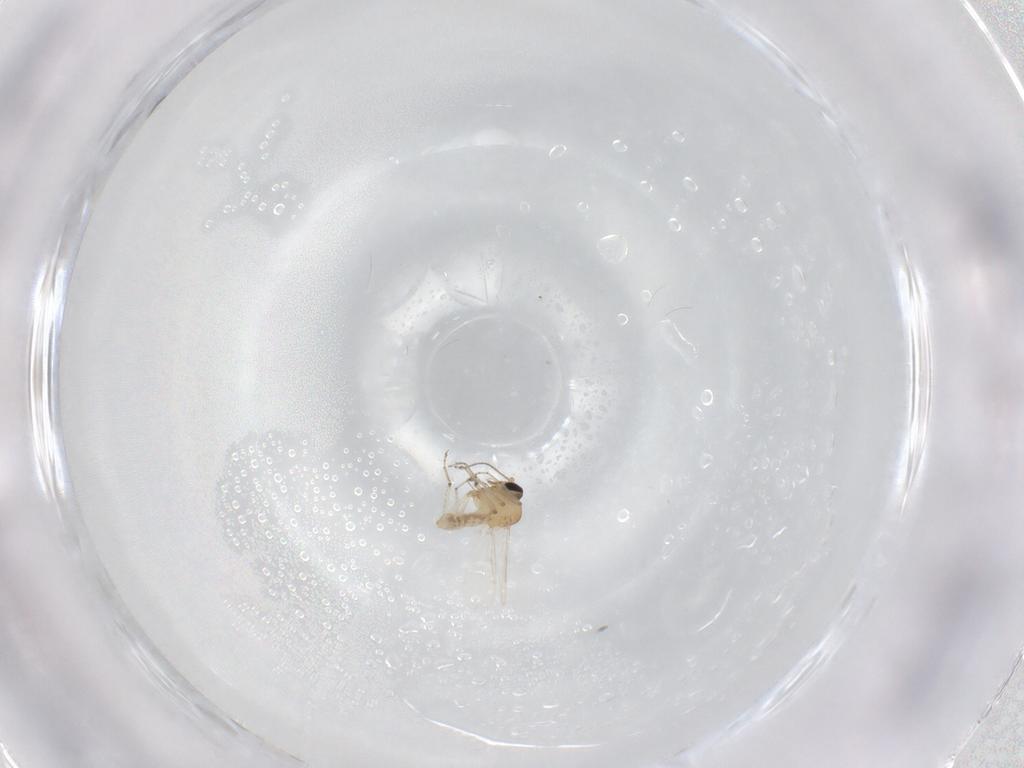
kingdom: Animalia
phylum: Arthropoda
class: Insecta
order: Diptera
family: Ceratopogonidae
